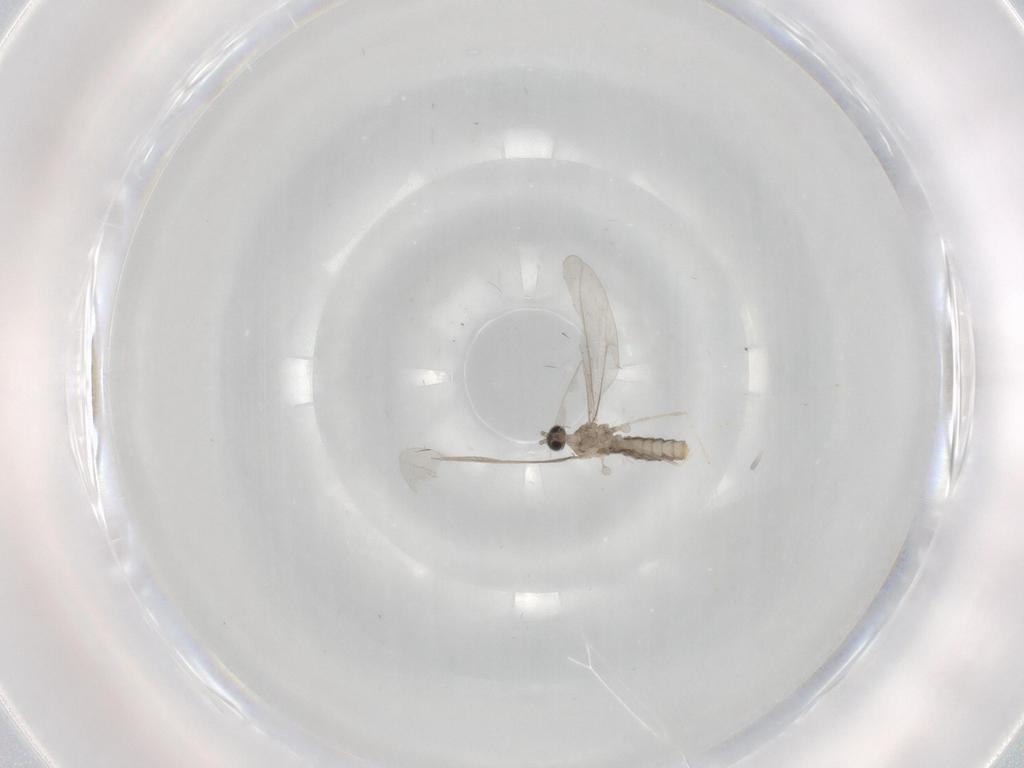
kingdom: Animalia
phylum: Arthropoda
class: Insecta
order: Diptera
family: Cecidomyiidae
